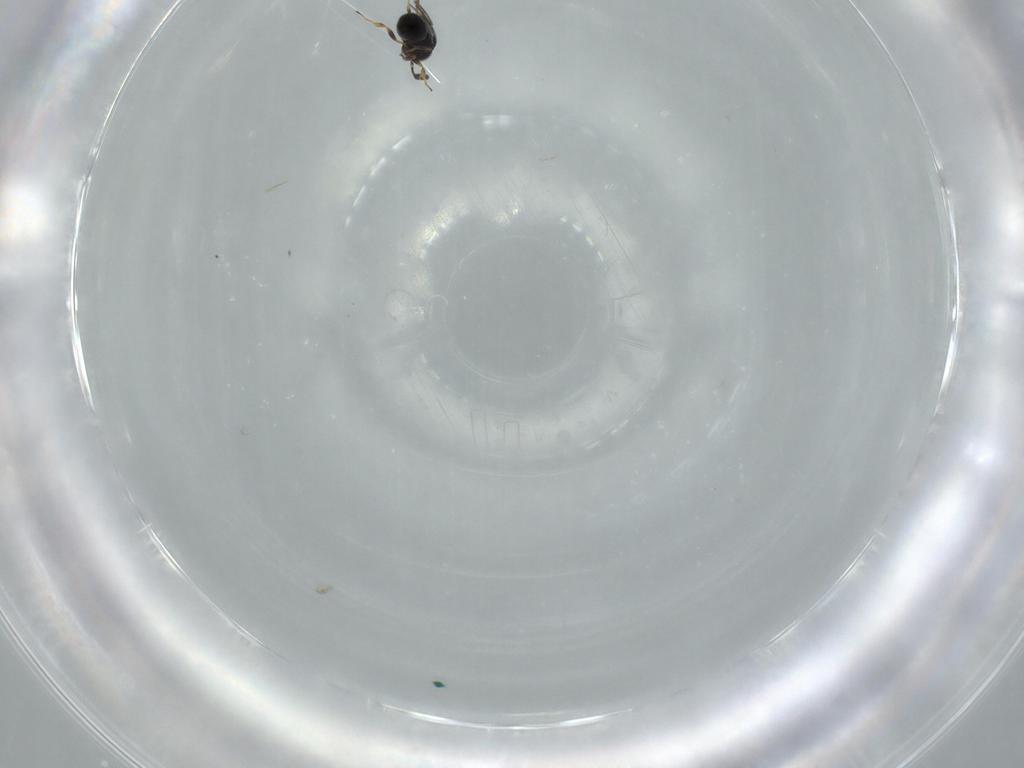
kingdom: Animalia
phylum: Arthropoda
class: Insecta
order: Hymenoptera
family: Scelionidae
